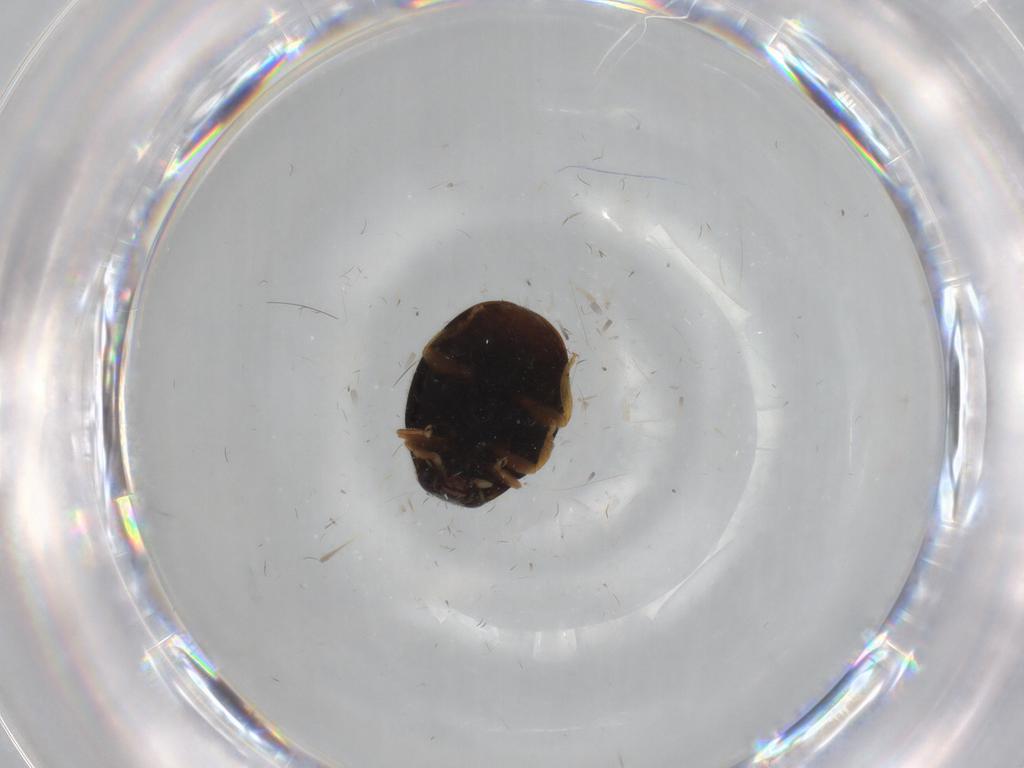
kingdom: Animalia
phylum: Arthropoda
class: Insecta
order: Coleoptera
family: Coccinellidae
